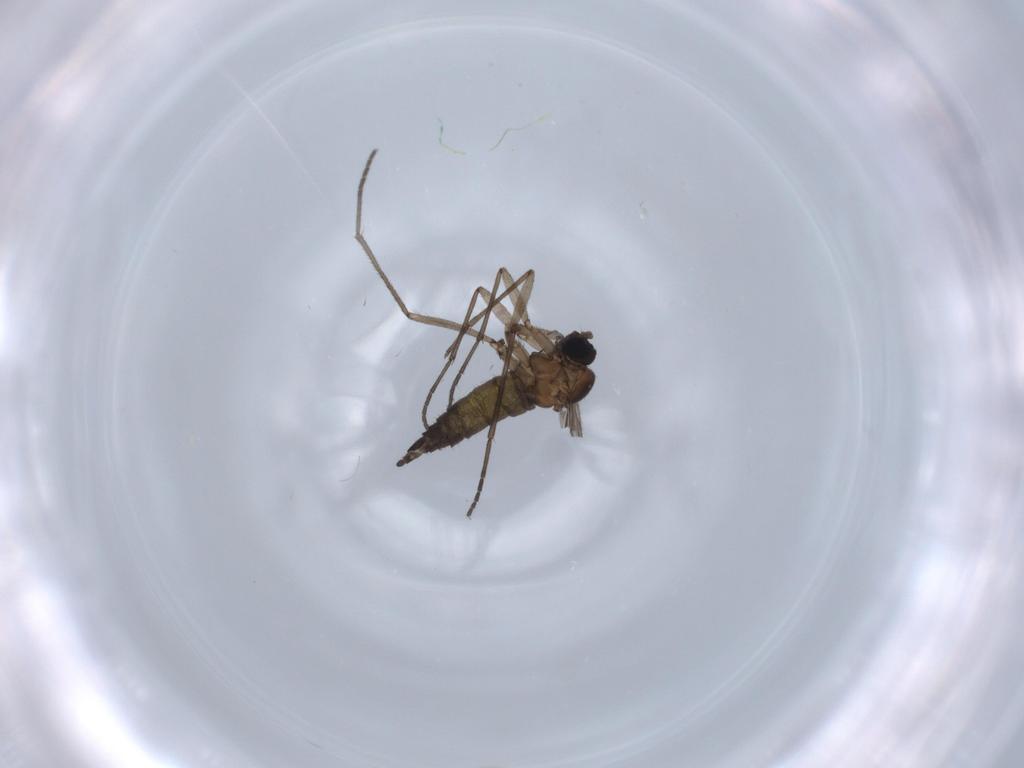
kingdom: Animalia
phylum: Arthropoda
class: Insecta
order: Diptera
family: Sciaridae
